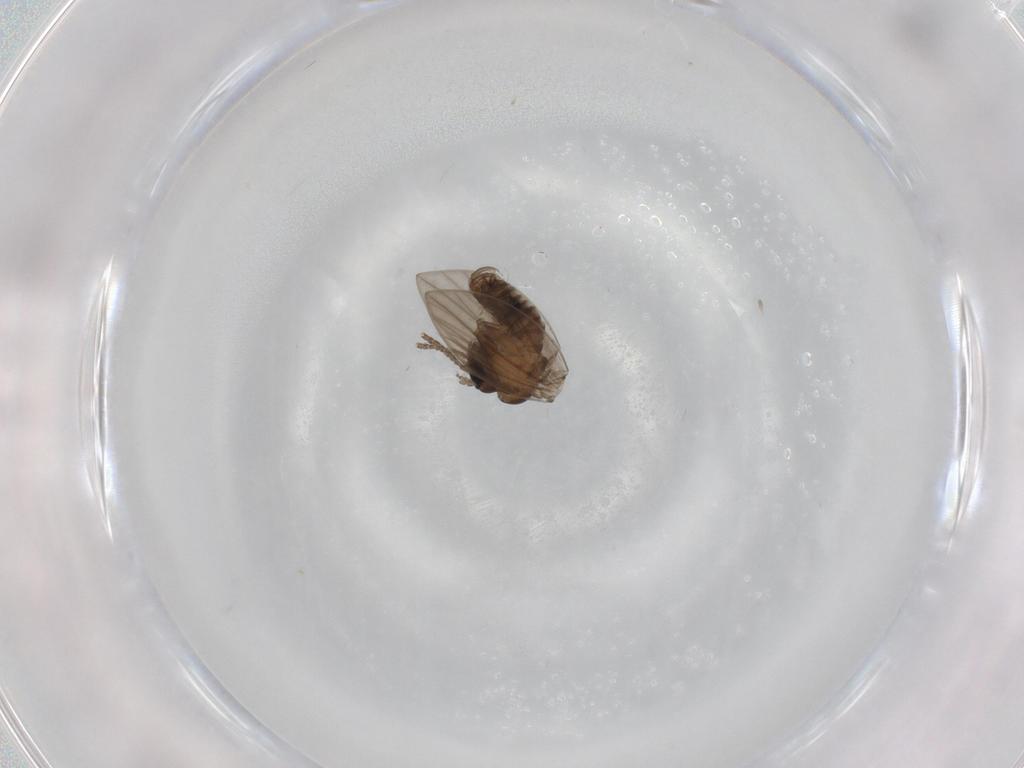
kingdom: Animalia
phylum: Arthropoda
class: Insecta
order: Diptera
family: Psychodidae
